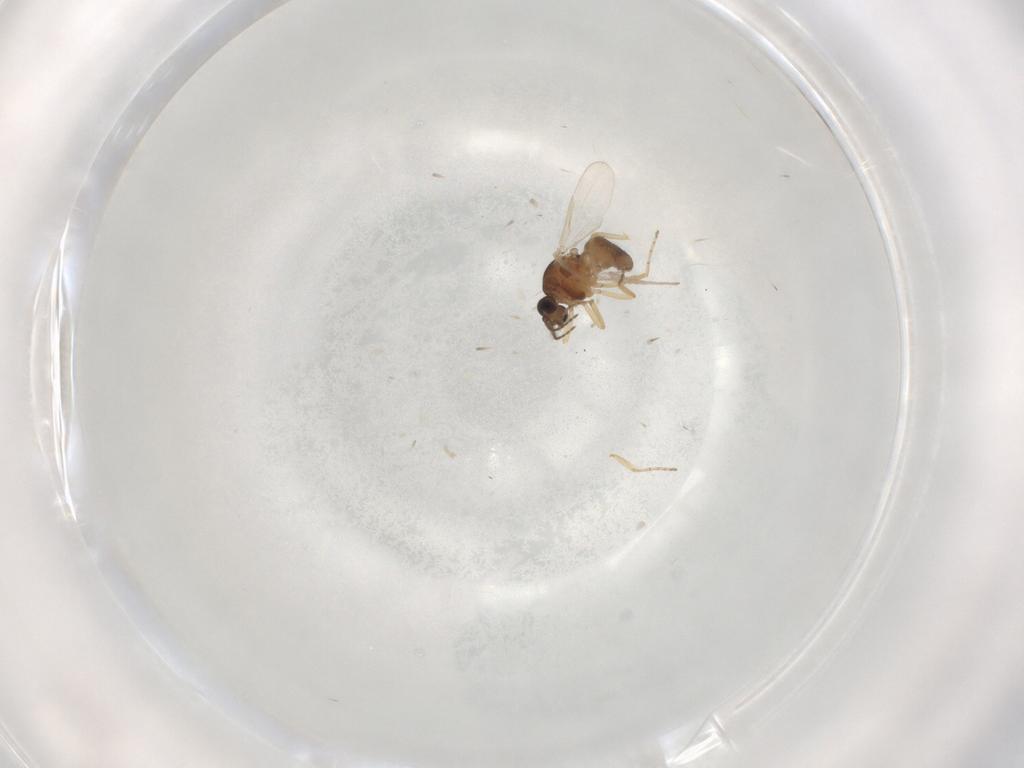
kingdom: Animalia
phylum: Arthropoda
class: Insecta
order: Diptera
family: Ceratopogonidae
